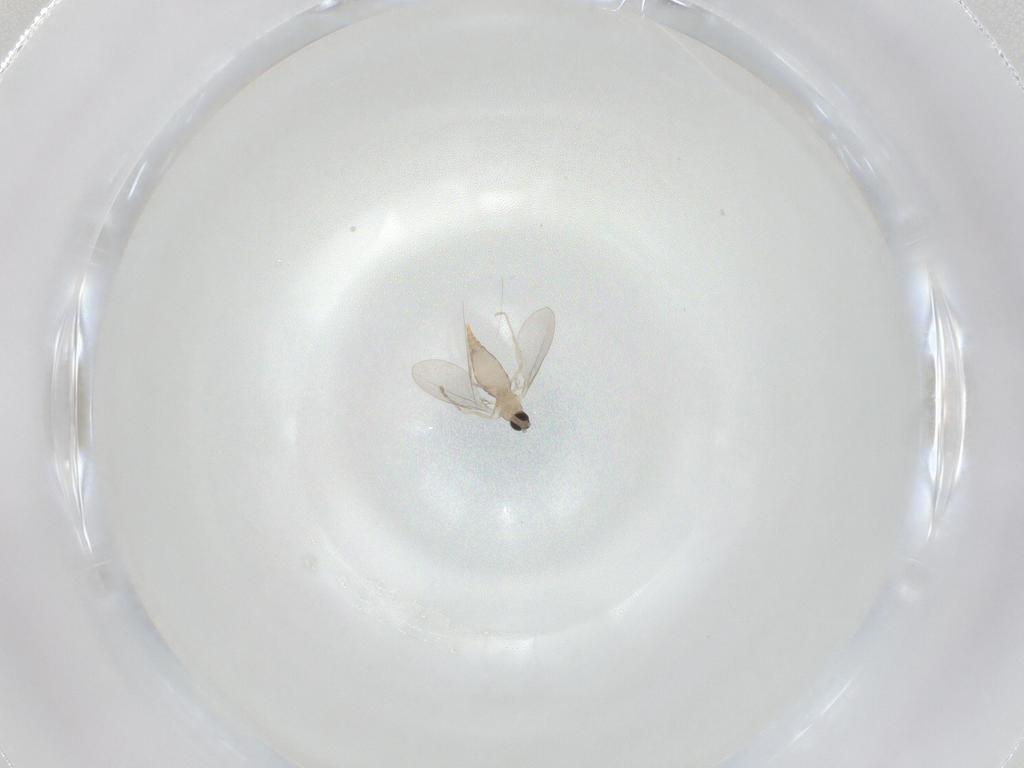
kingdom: Animalia
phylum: Arthropoda
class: Insecta
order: Diptera
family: Cecidomyiidae
